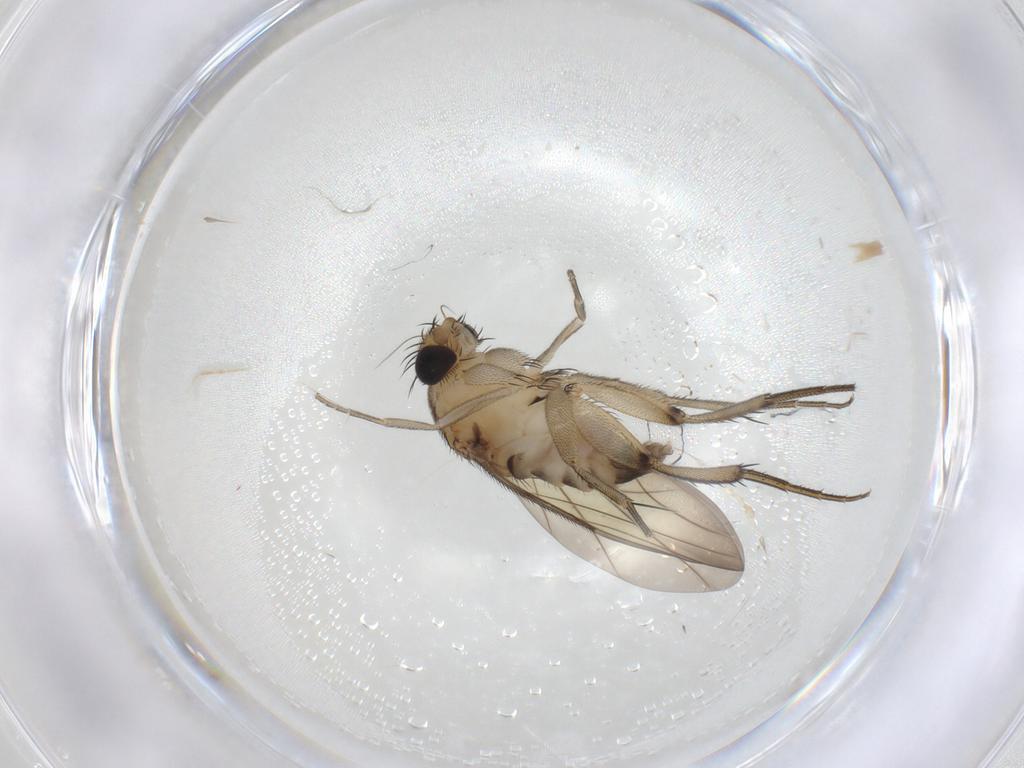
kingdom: Animalia
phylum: Arthropoda
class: Insecta
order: Diptera
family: Phoridae
